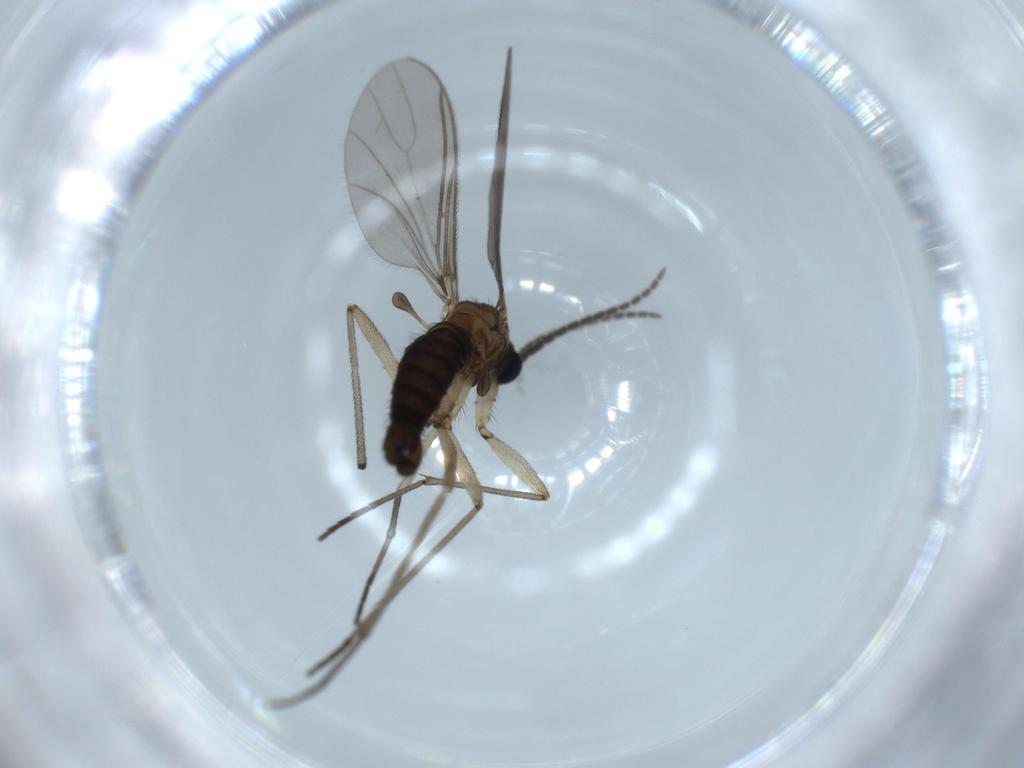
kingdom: Animalia
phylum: Arthropoda
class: Insecta
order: Diptera
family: Sciaridae
